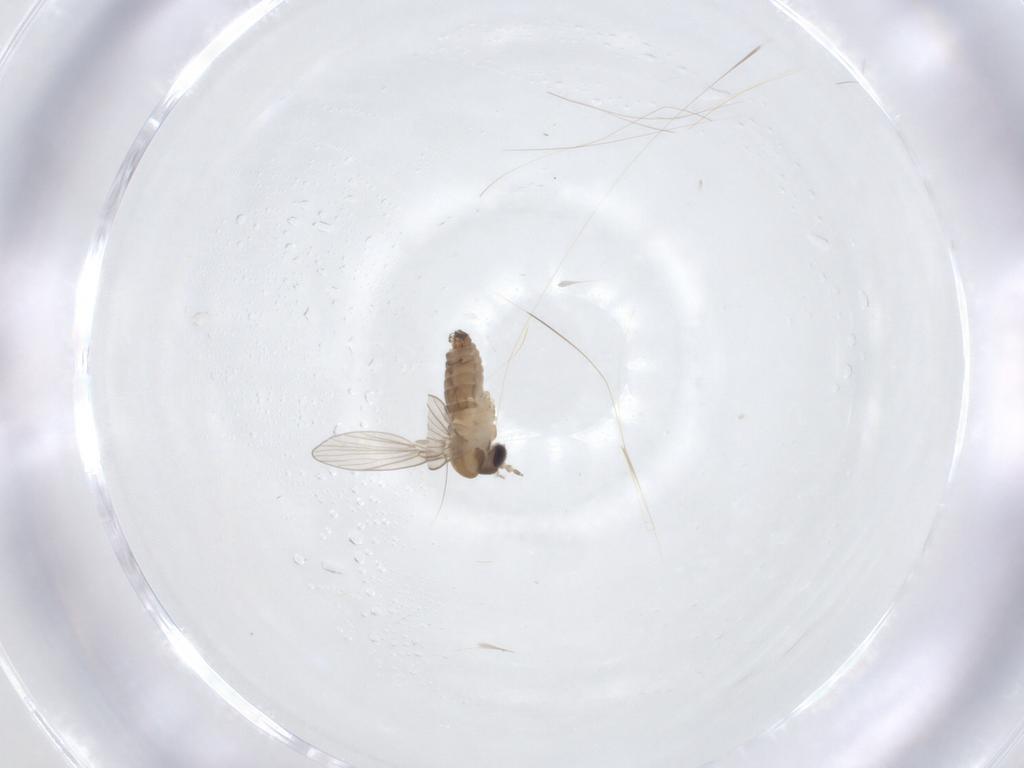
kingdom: Animalia
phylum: Arthropoda
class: Insecta
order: Diptera
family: Psychodidae
